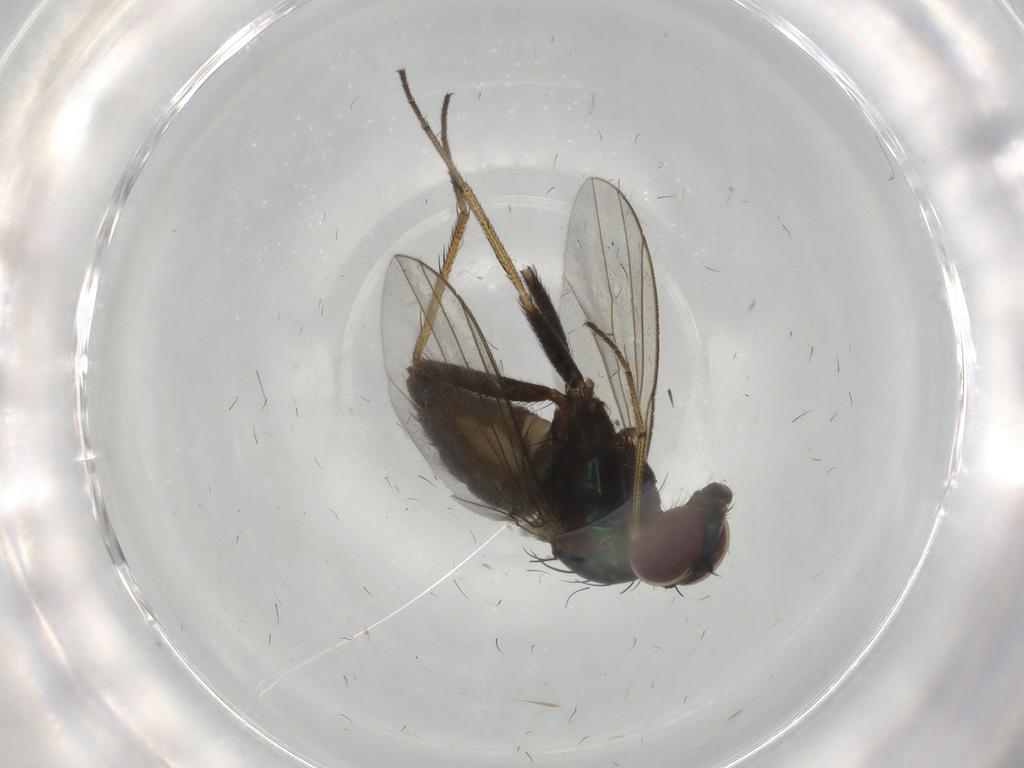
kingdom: Animalia
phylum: Arthropoda
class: Insecta
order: Diptera
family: Dolichopodidae
